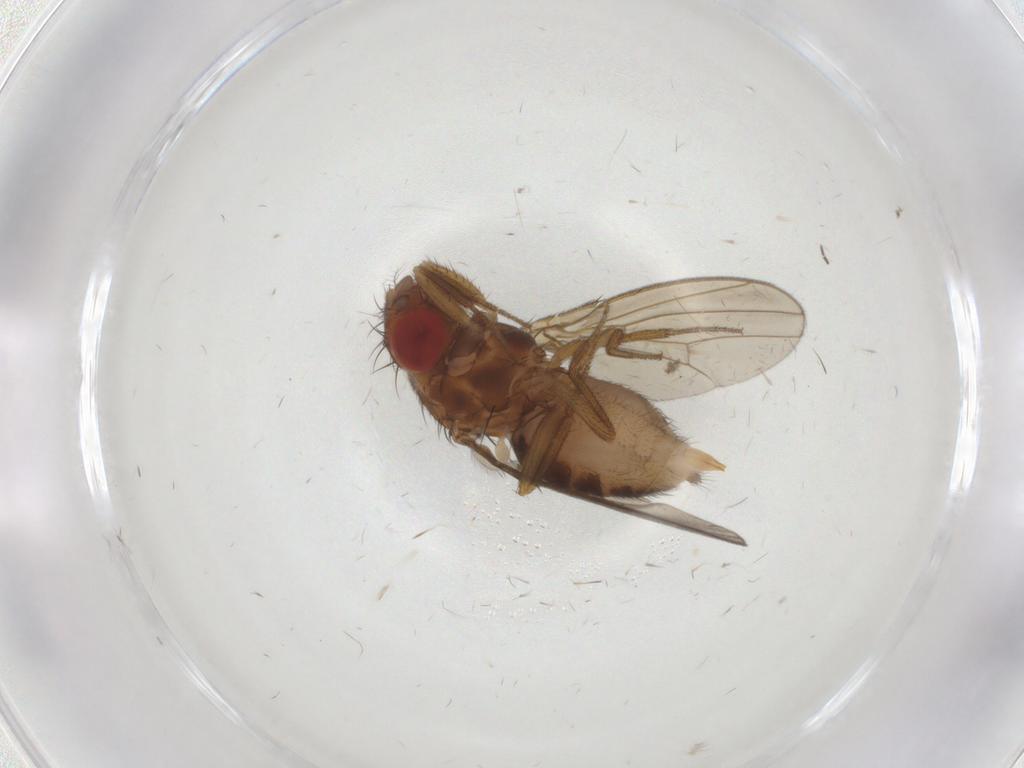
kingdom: Animalia
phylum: Arthropoda
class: Insecta
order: Diptera
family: Drosophilidae
